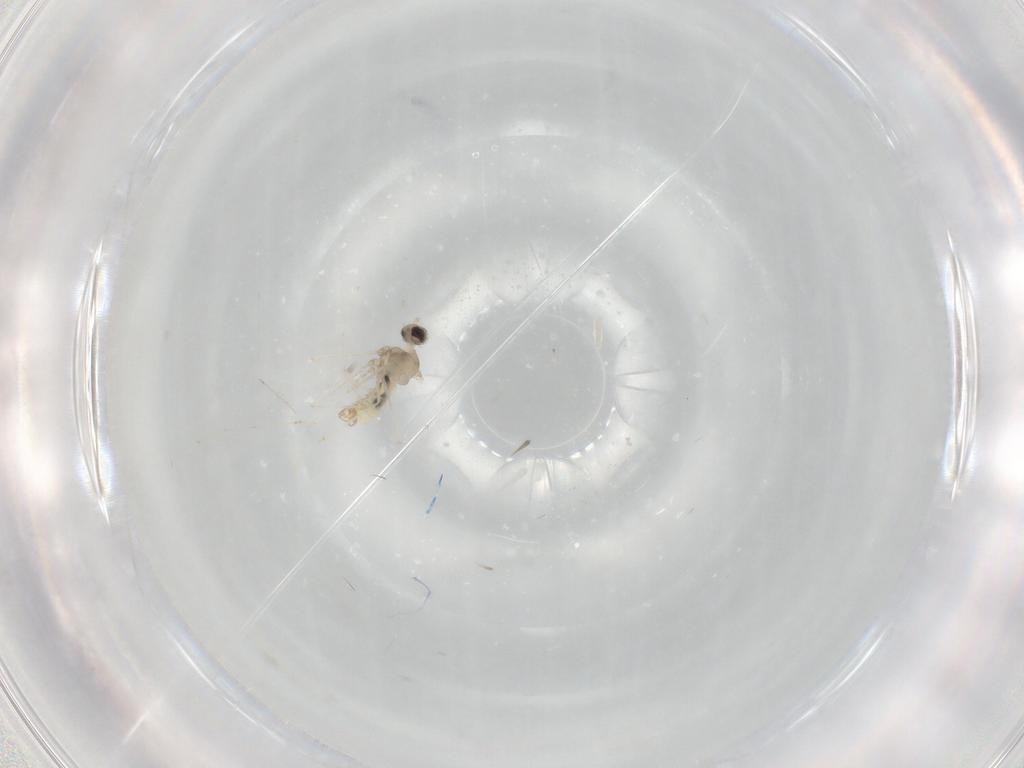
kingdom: Animalia
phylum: Arthropoda
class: Insecta
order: Diptera
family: Cecidomyiidae
